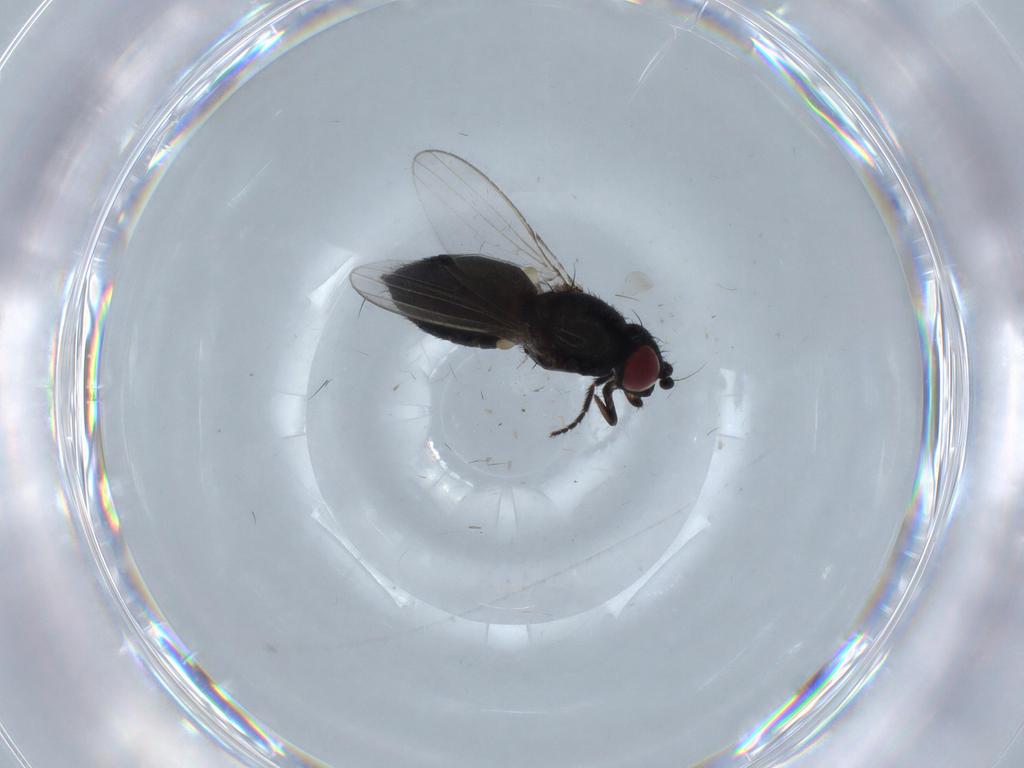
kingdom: Animalia
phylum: Arthropoda
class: Insecta
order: Diptera
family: Milichiidae
